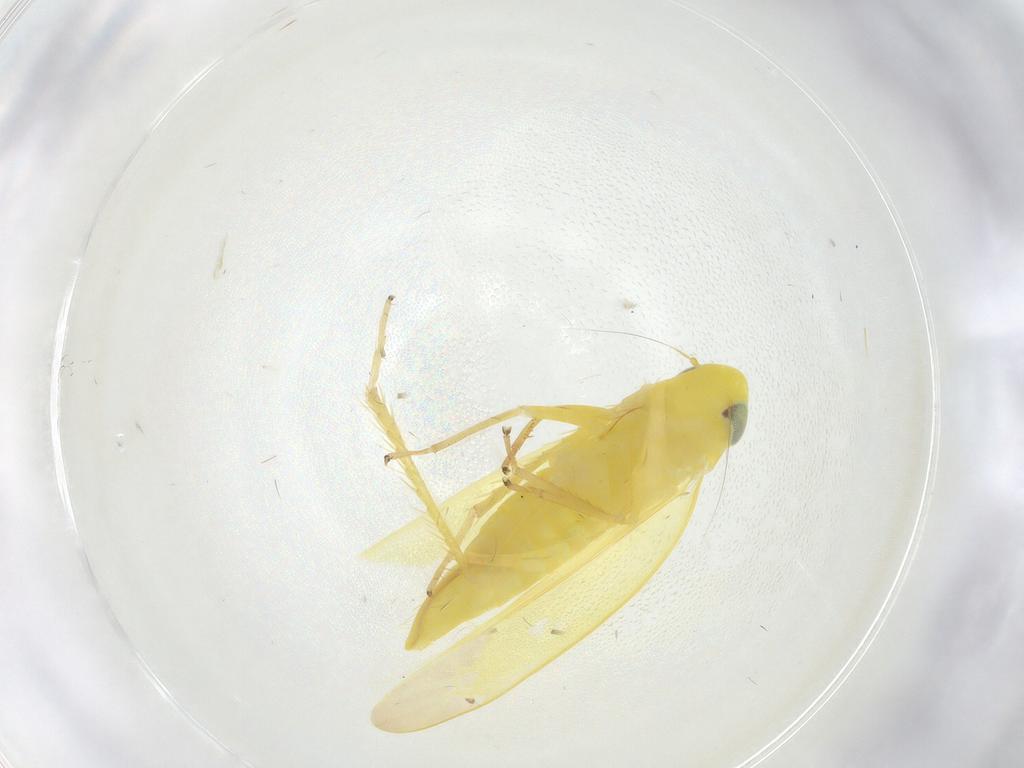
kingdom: Animalia
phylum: Arthropoda
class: Insecta
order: Hemiptera
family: Cicadellidae
